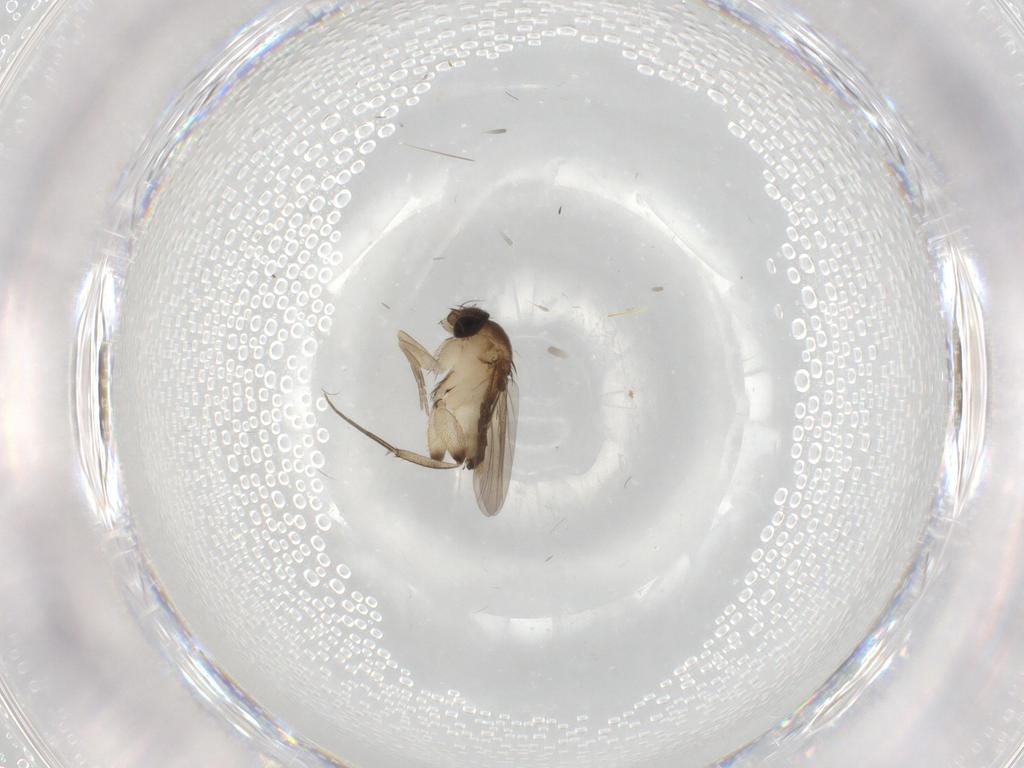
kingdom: Animalia
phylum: Arthropoda
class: Insecta
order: Diptera
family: Phoridae
